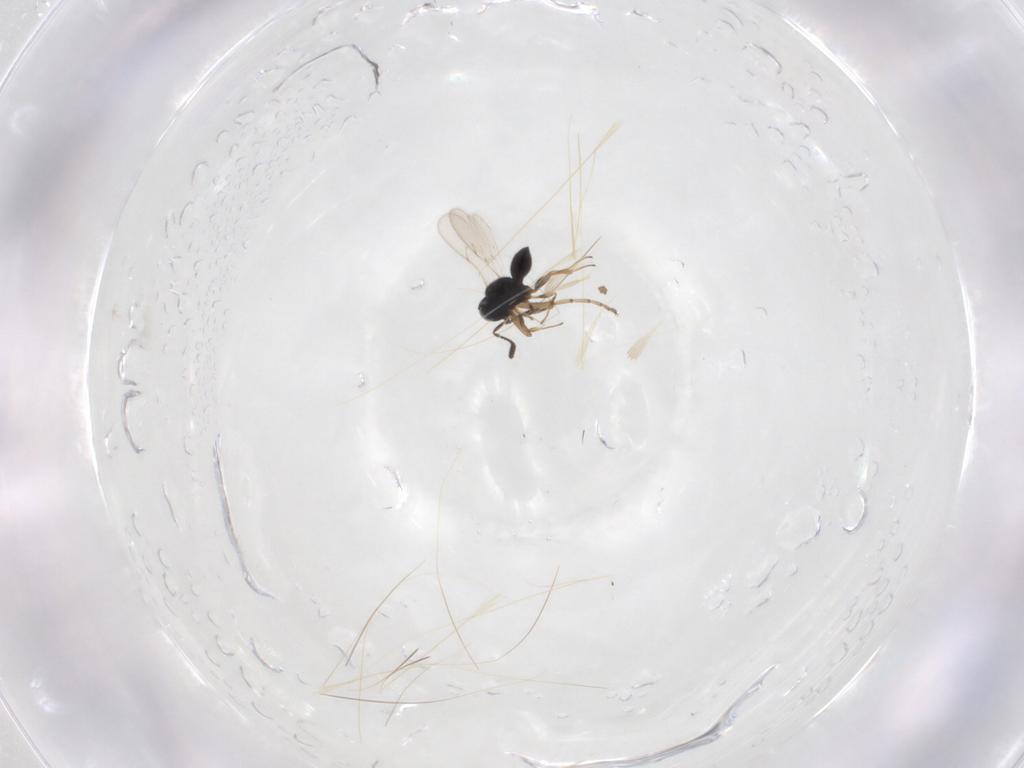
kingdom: Animalia
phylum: Arthropoda
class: Insecta
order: Hymenoptera
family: Scelionidae
